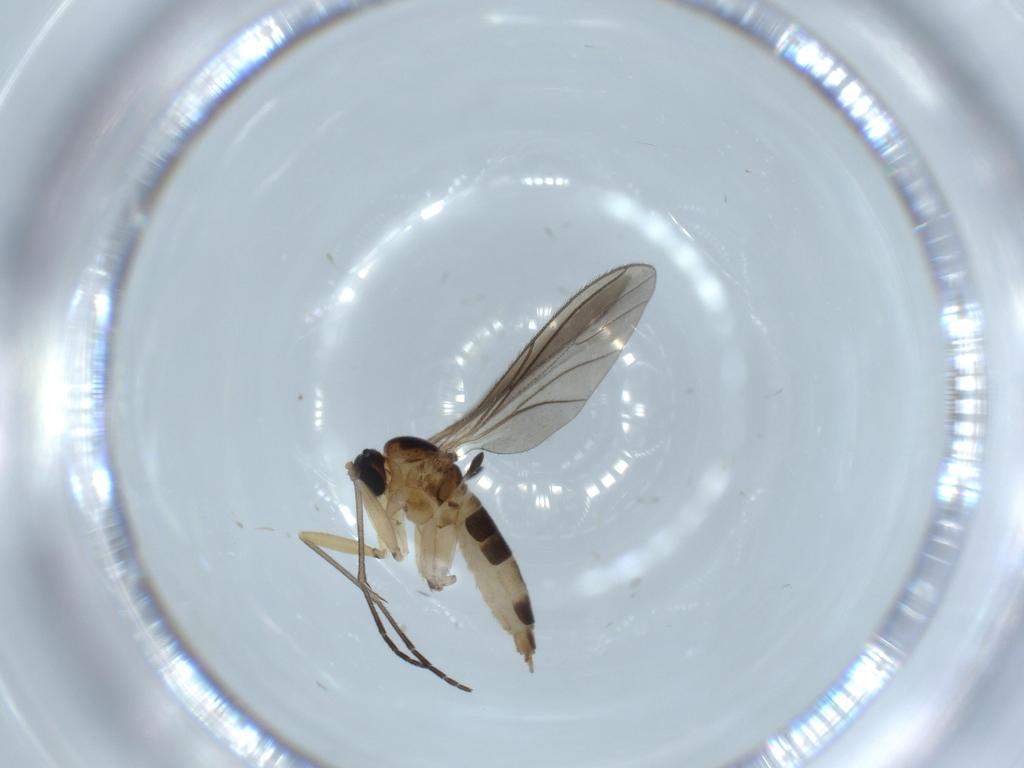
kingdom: Animalia
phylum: Arthropoda
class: Insecta
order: Diptera
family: Sciaridae
